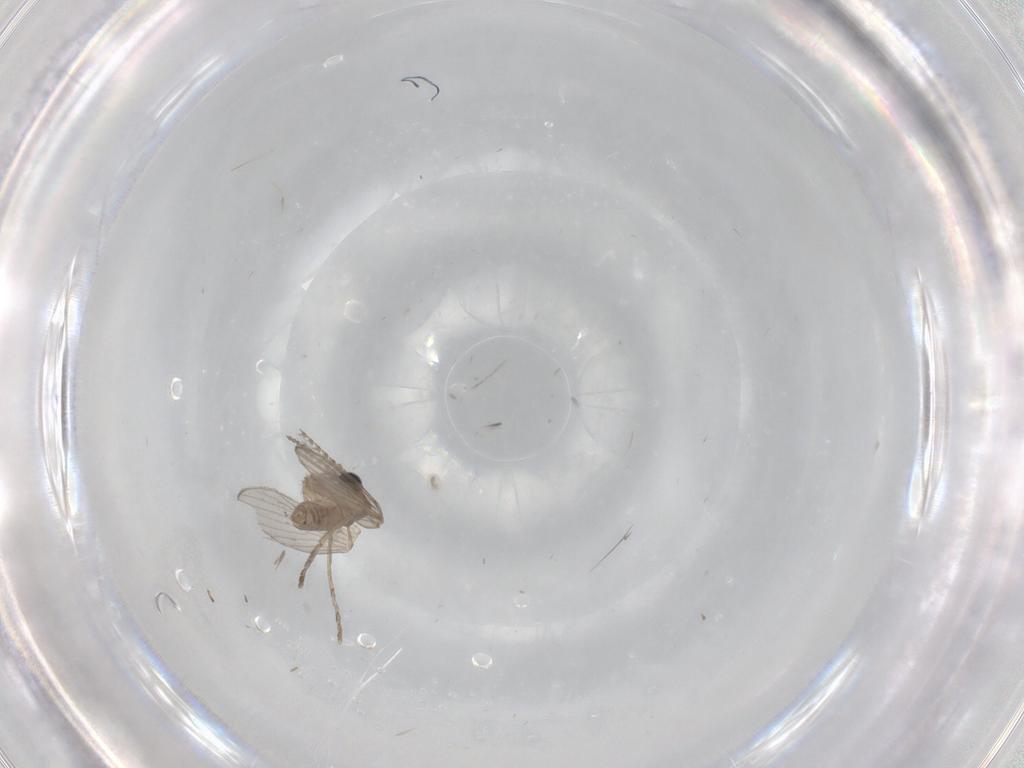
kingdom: Animalia
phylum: Arthropoda
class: Insecta
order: Diptera
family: Psychodidae
